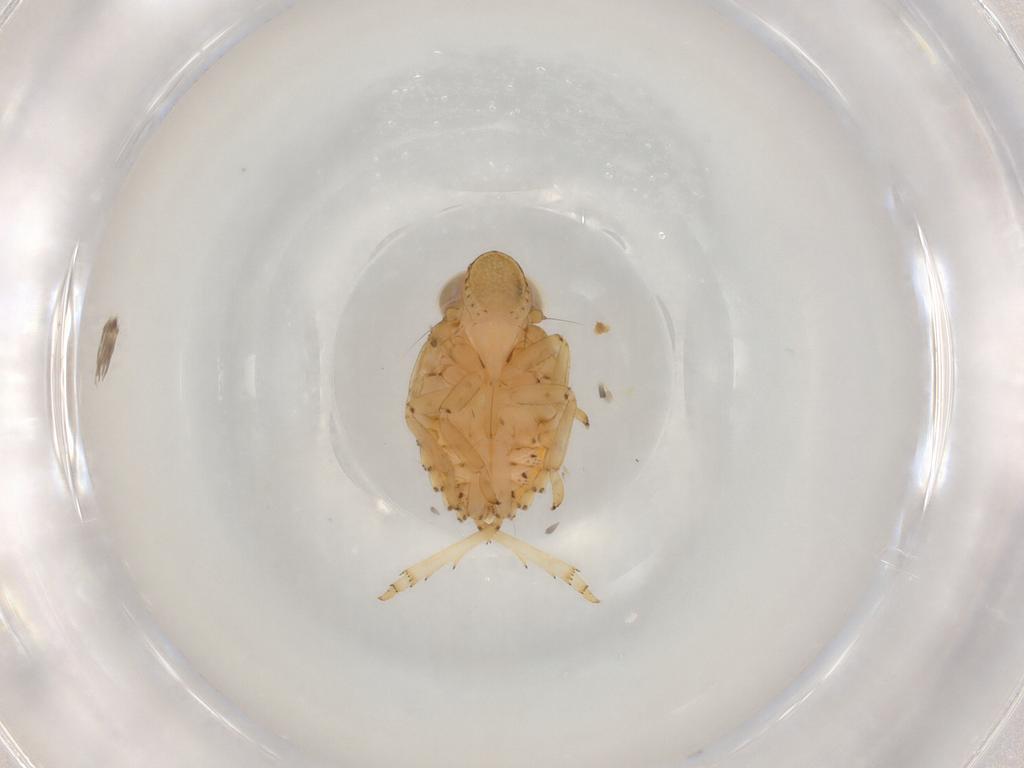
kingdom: Animalia
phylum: Arthropoda
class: Insecta
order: Hemiptera
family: Issidae
